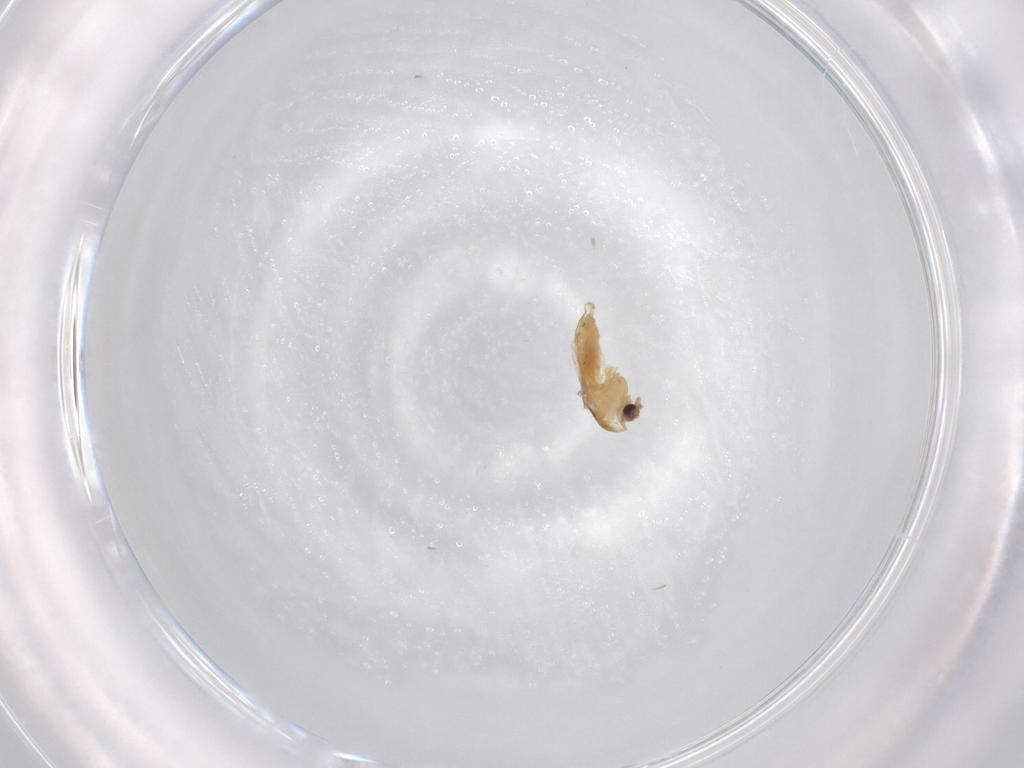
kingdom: Animalia
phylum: Arthropoda
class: Insecta
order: Diptera
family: Chironomidae
